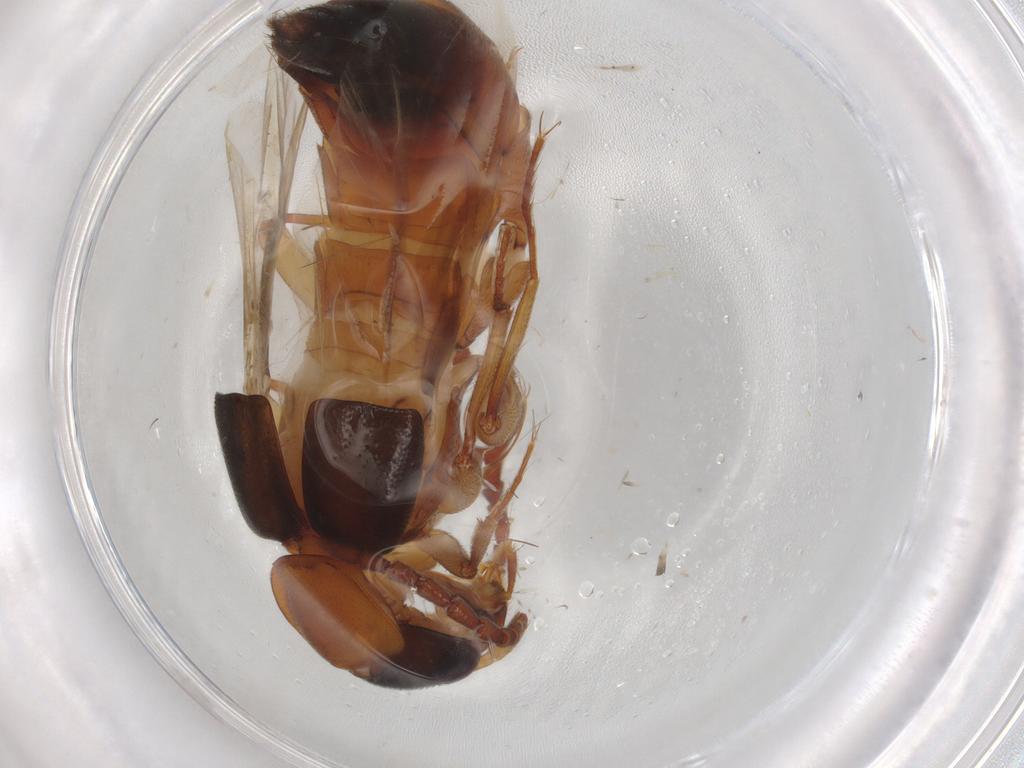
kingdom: Animalia
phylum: Arthropoda
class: Insecta
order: Coleoptera
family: Staphylinidae
